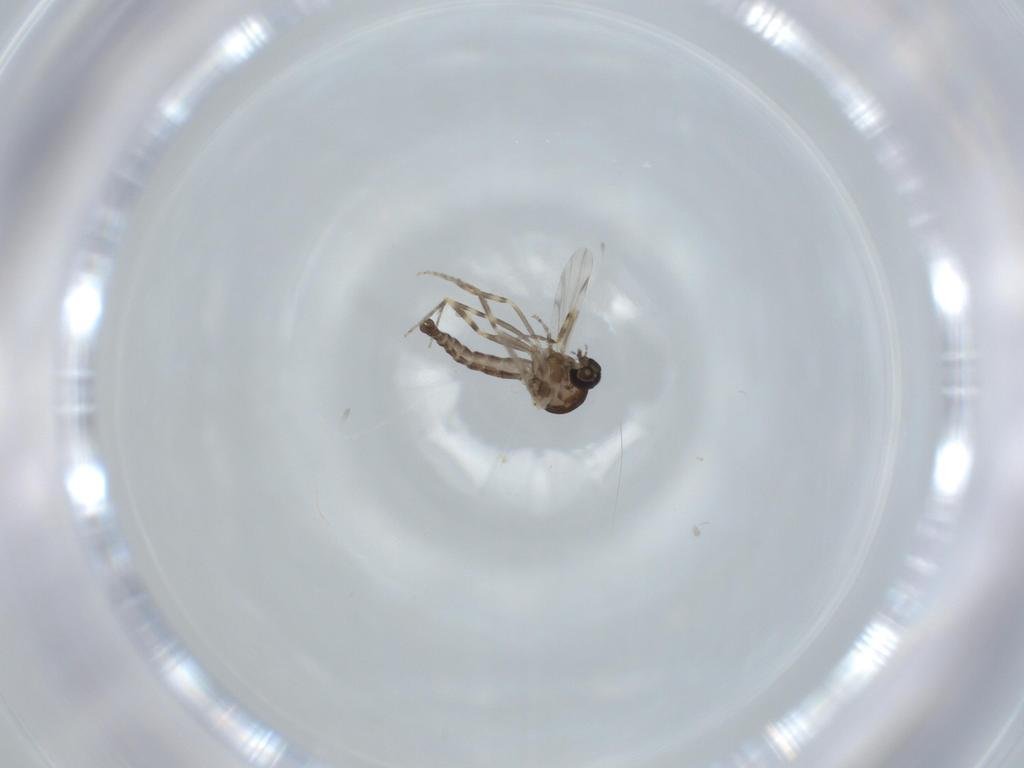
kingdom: Animalia
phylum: Arthropoda
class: Insecta
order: Diptera
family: Ceratopogonidae
